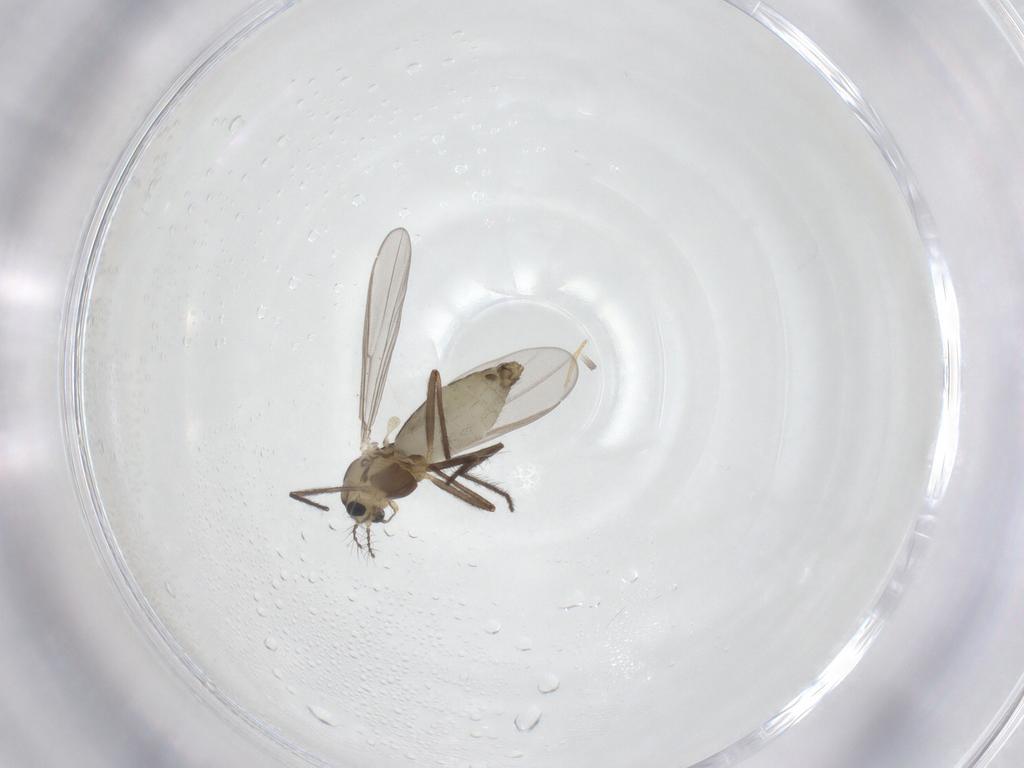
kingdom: Animalia
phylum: Arthropoda
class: Insecta
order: Diptera
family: Chironomidae
